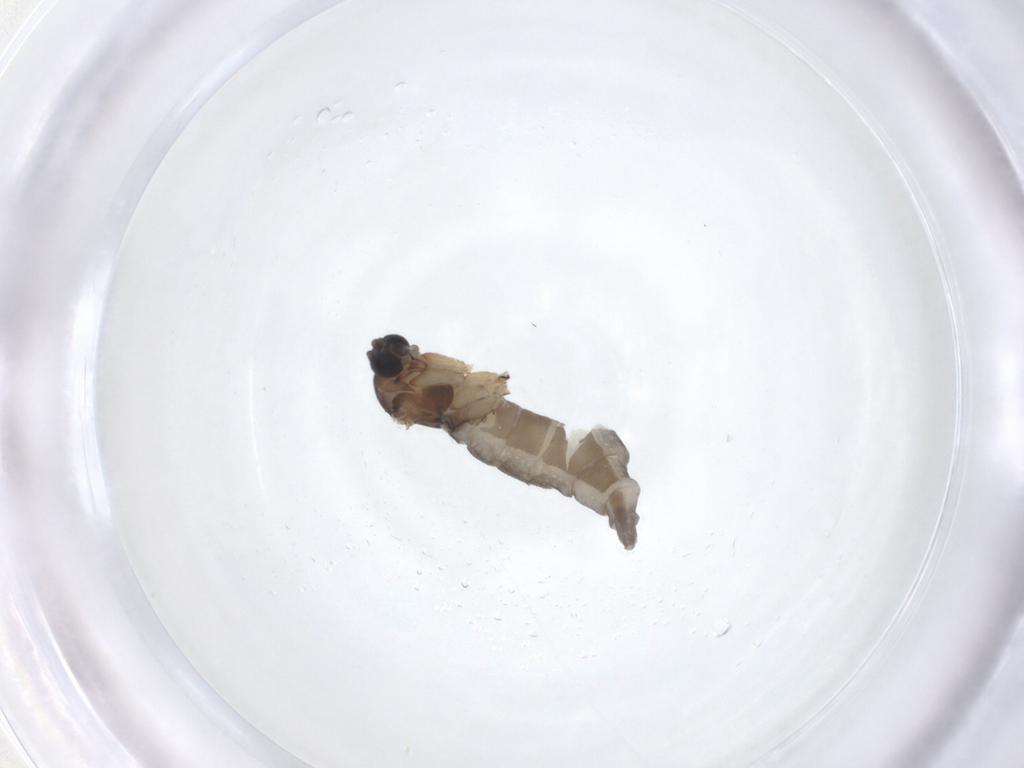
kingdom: Animalia
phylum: Arthropoda
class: Insecta
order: Diptera
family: Sciaridae
